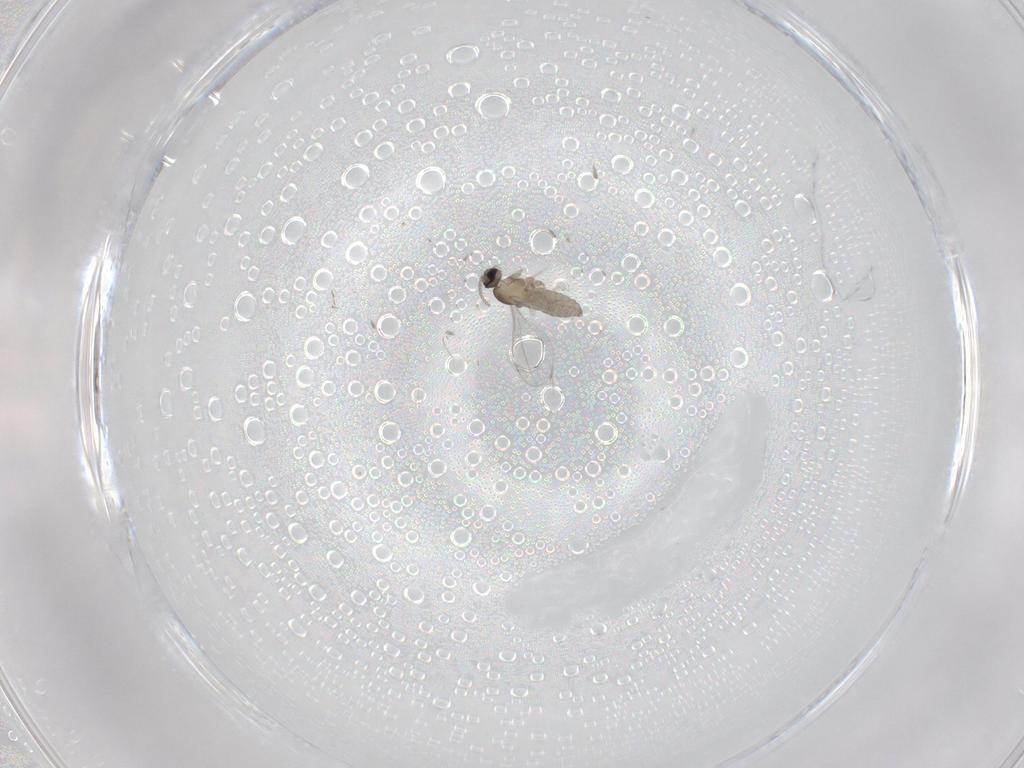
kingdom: Animalia
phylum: Arthropoda
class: Insecta
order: Diptera
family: Cecidomyiidae
